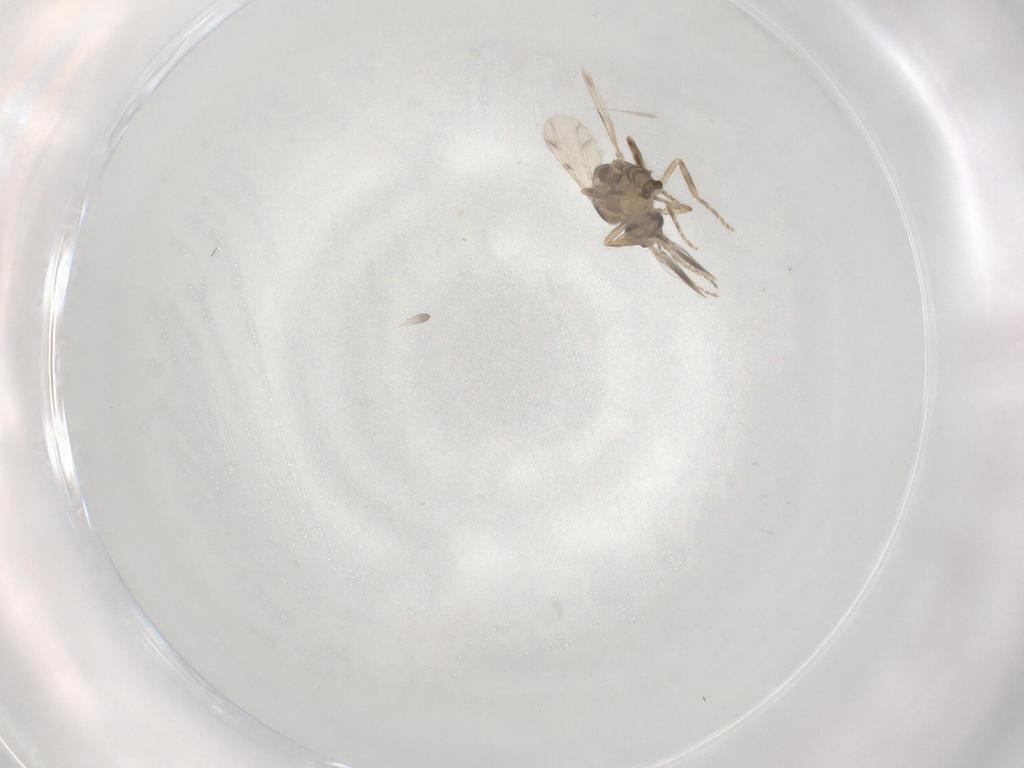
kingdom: Animalia
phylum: Arthropoda
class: Insecta
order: Diptera
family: Ceratopogonidae
